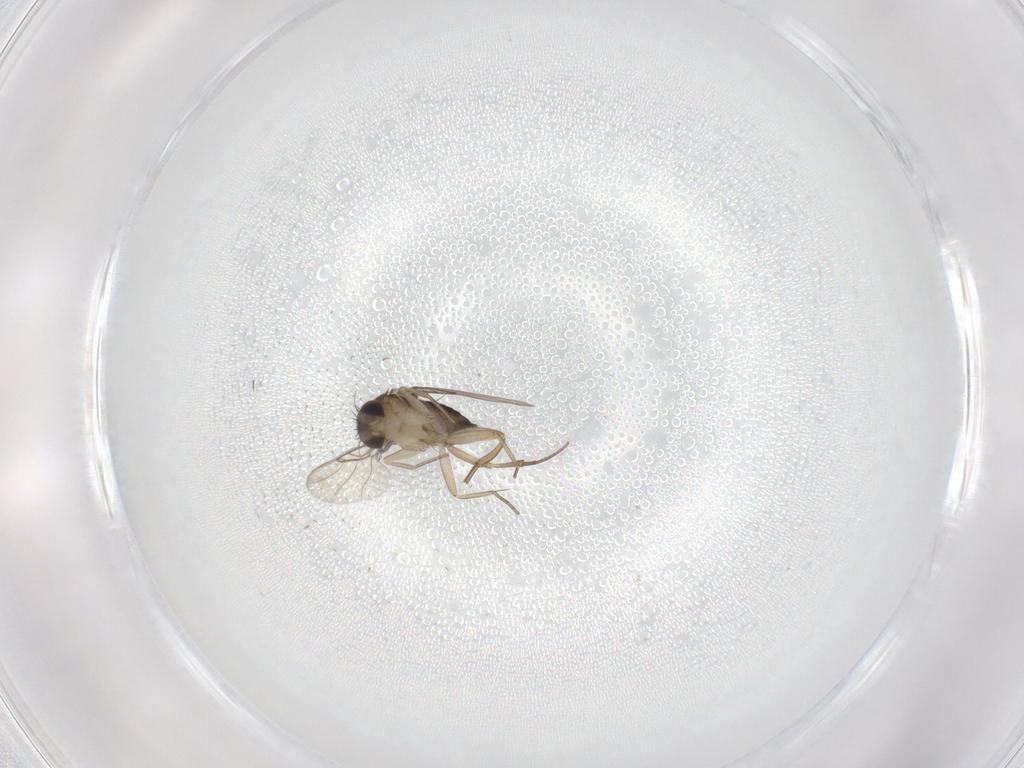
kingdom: Animalia
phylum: Arthropoda
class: Insecta
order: Diptera
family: Phoridae
